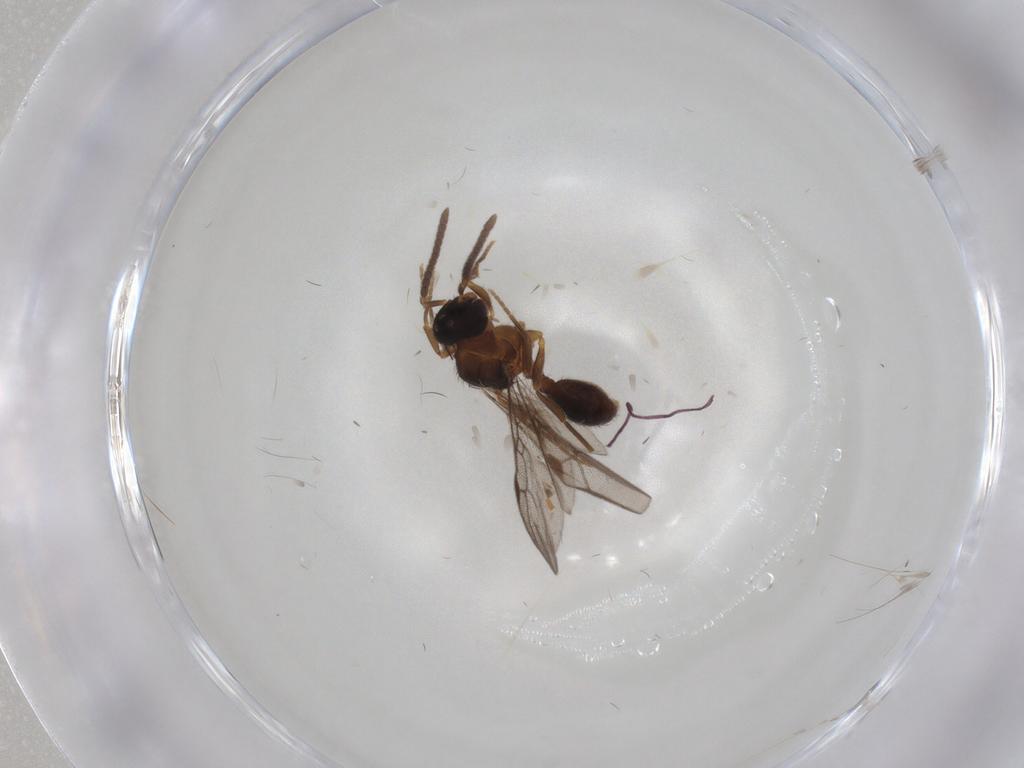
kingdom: Animalia
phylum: Arthropoda
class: Insecta
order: Hymenoptera
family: Formicidae
